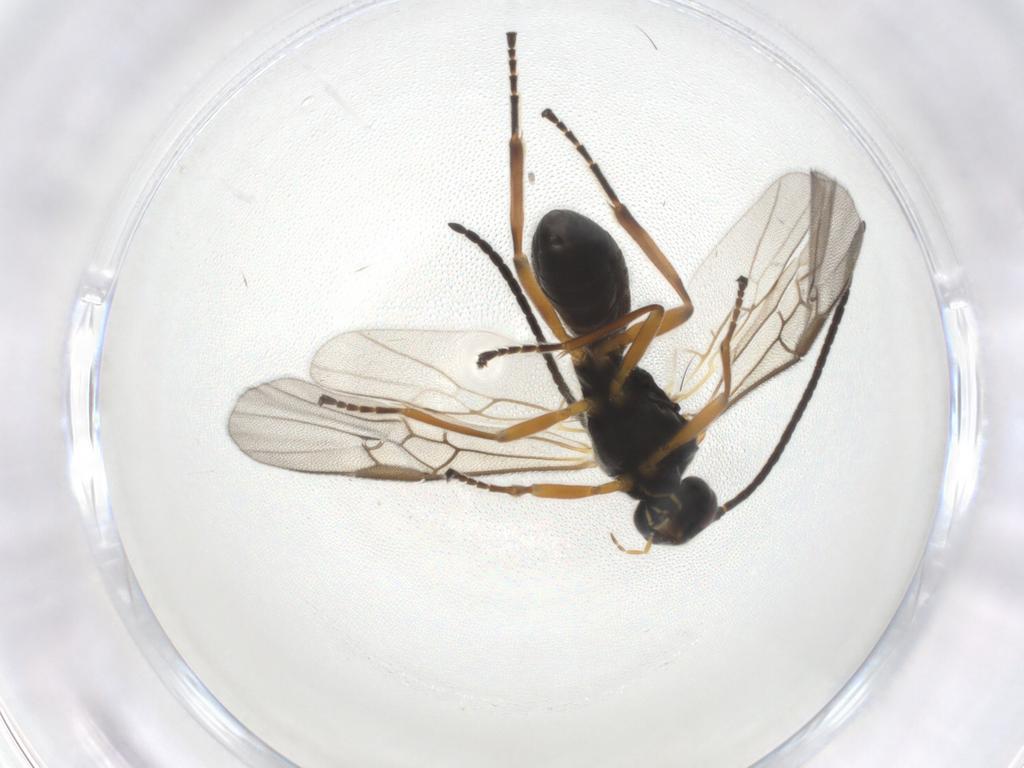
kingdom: Animalia
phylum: Arthropoda
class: Insecta
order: Hymenoptera
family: Braconidae
